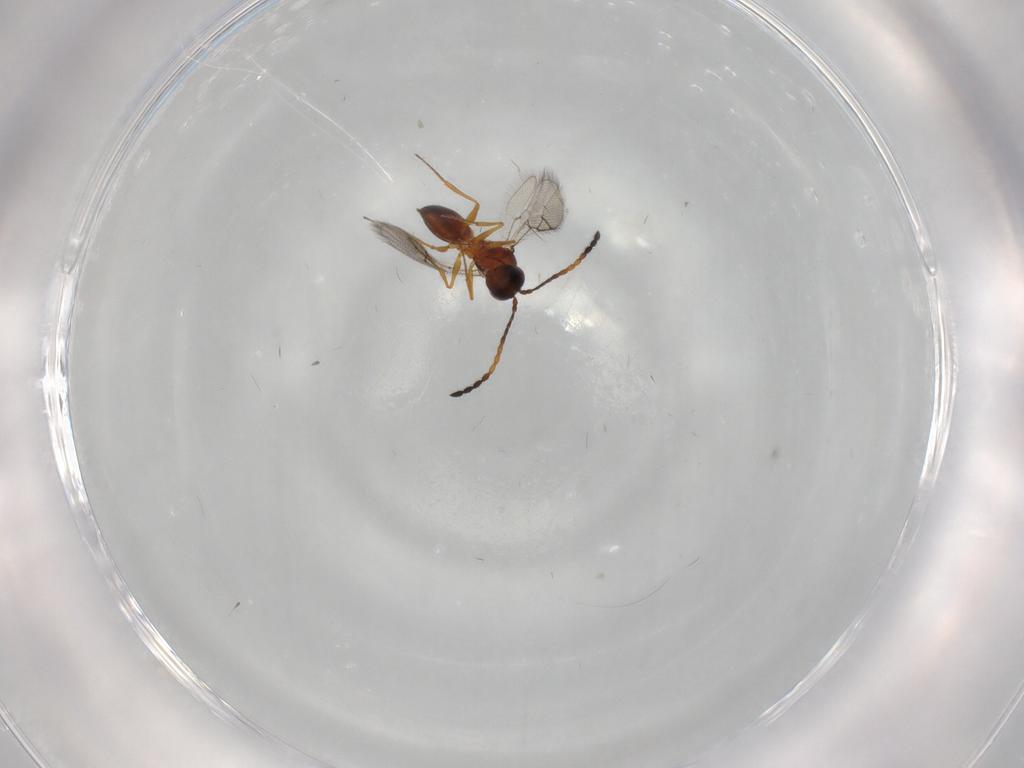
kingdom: Animalia
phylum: Arthropoda
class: Insecta
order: Hymenoptera
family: Figitidae
